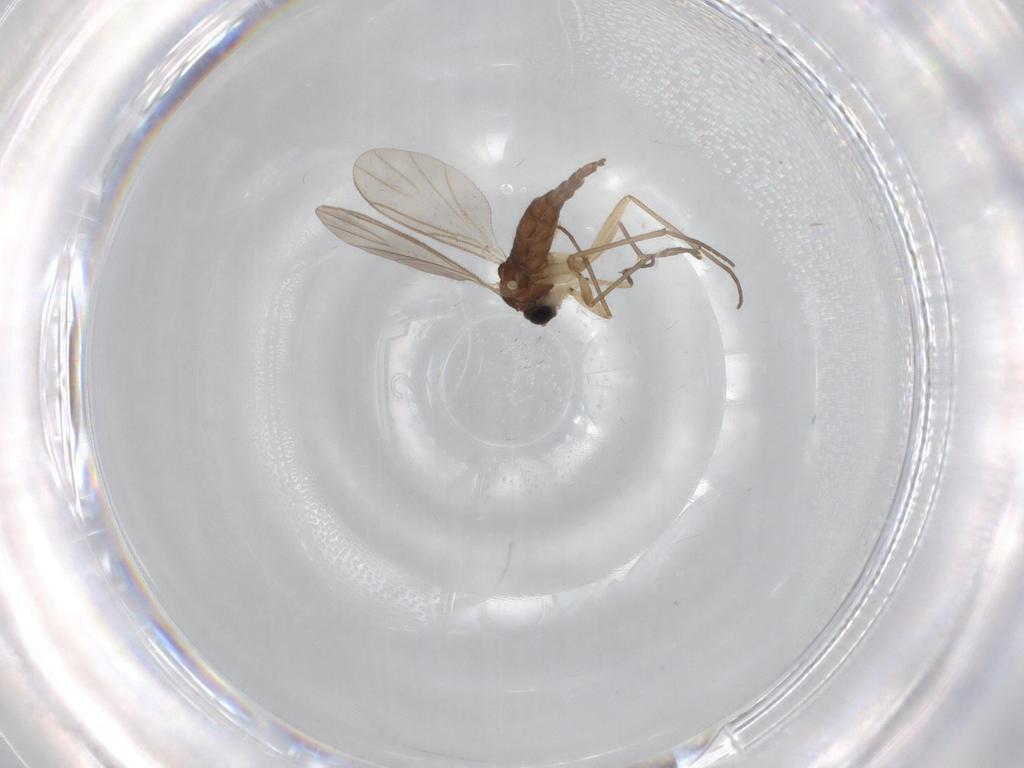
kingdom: Animalia
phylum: Arthropoda
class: Insecta
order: Diptera
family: Sciaridae
